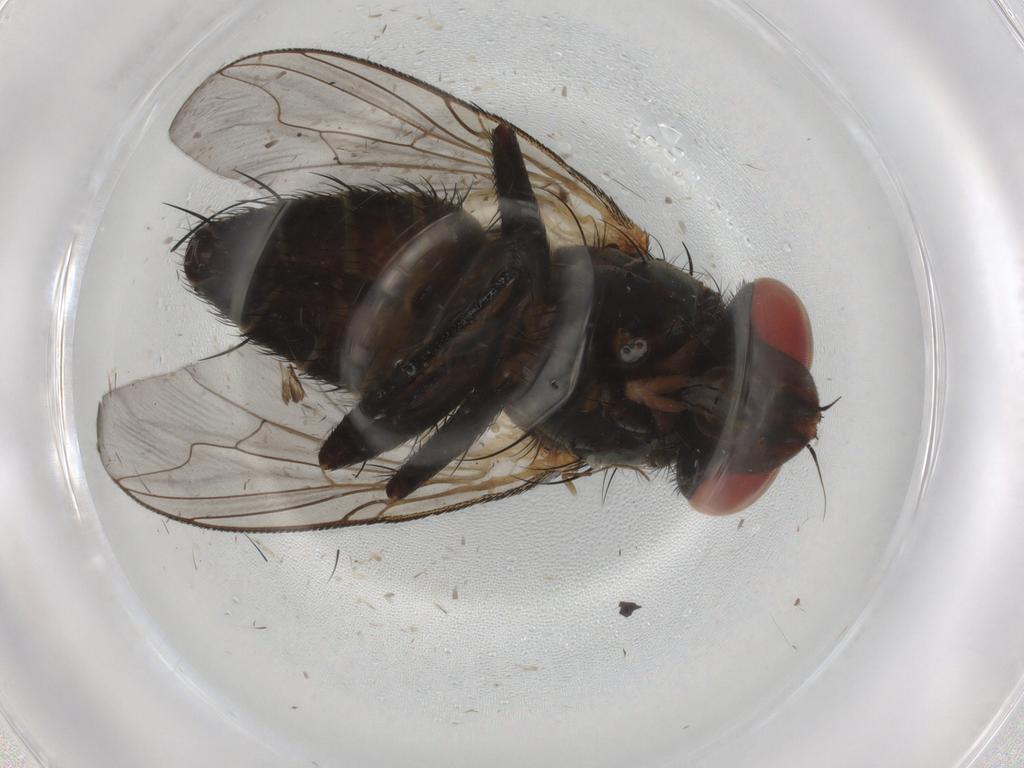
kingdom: Animalia
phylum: Arthropoda
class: Insecta
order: Diptera
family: Sarcophagidae
